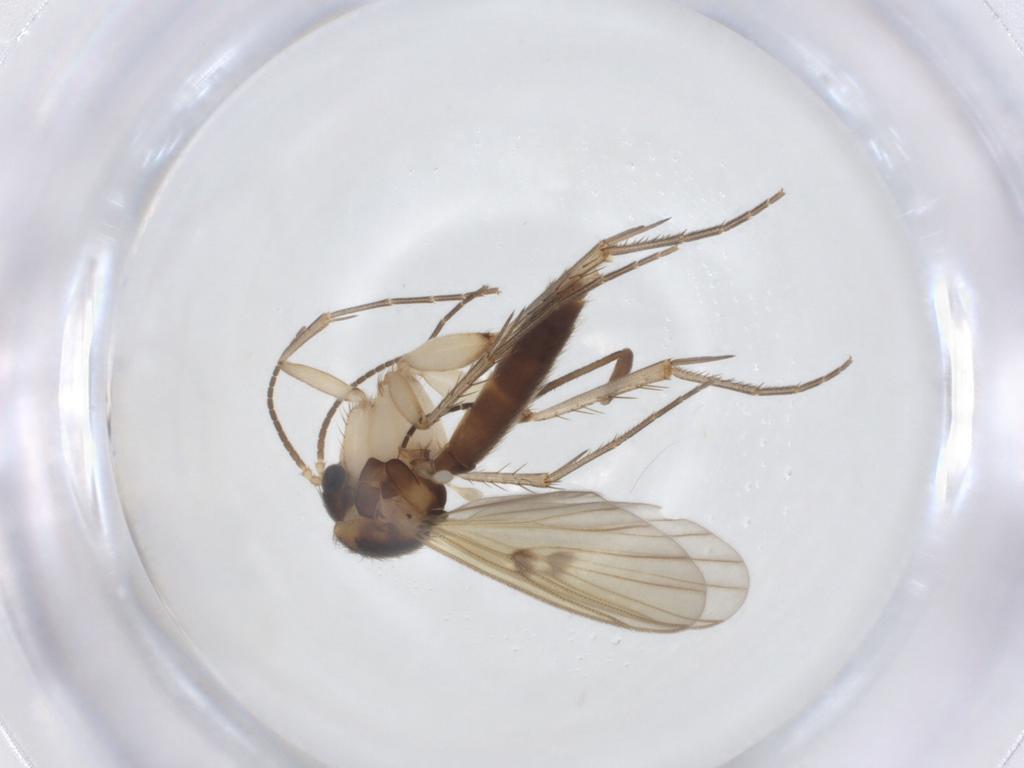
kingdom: Animalia
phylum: Arthropoda
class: Insecta
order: Diptera
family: Mycetophilidae
